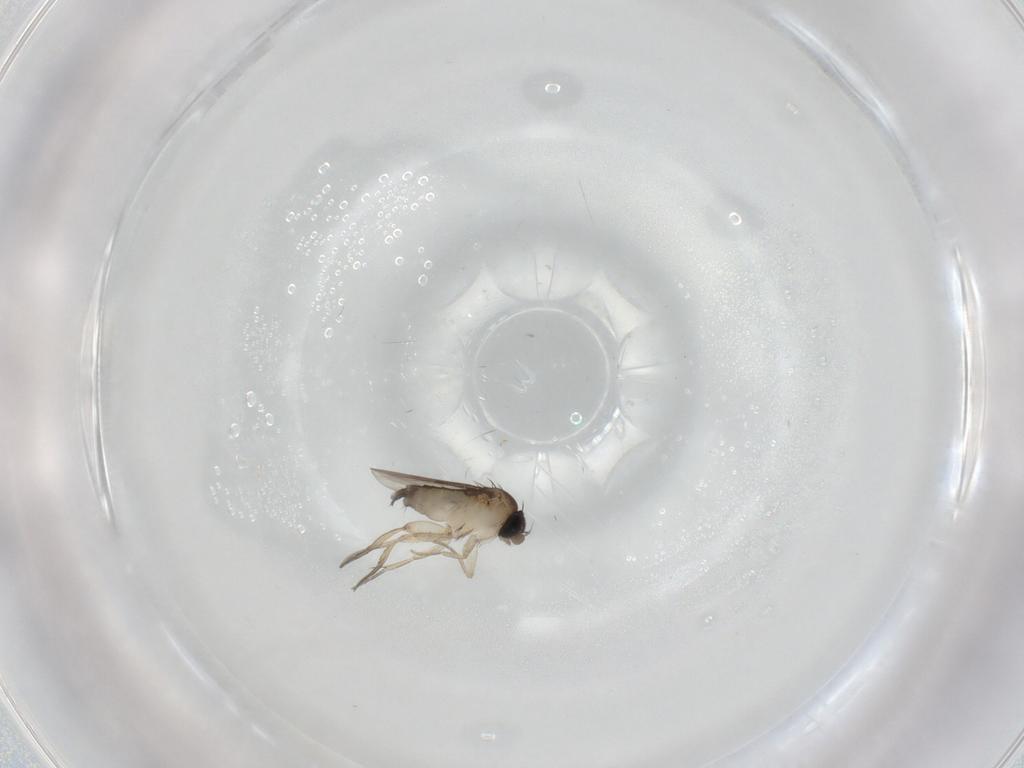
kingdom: Animalia
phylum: Arthropoda
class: Insecta
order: Diptera
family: Phoridae
